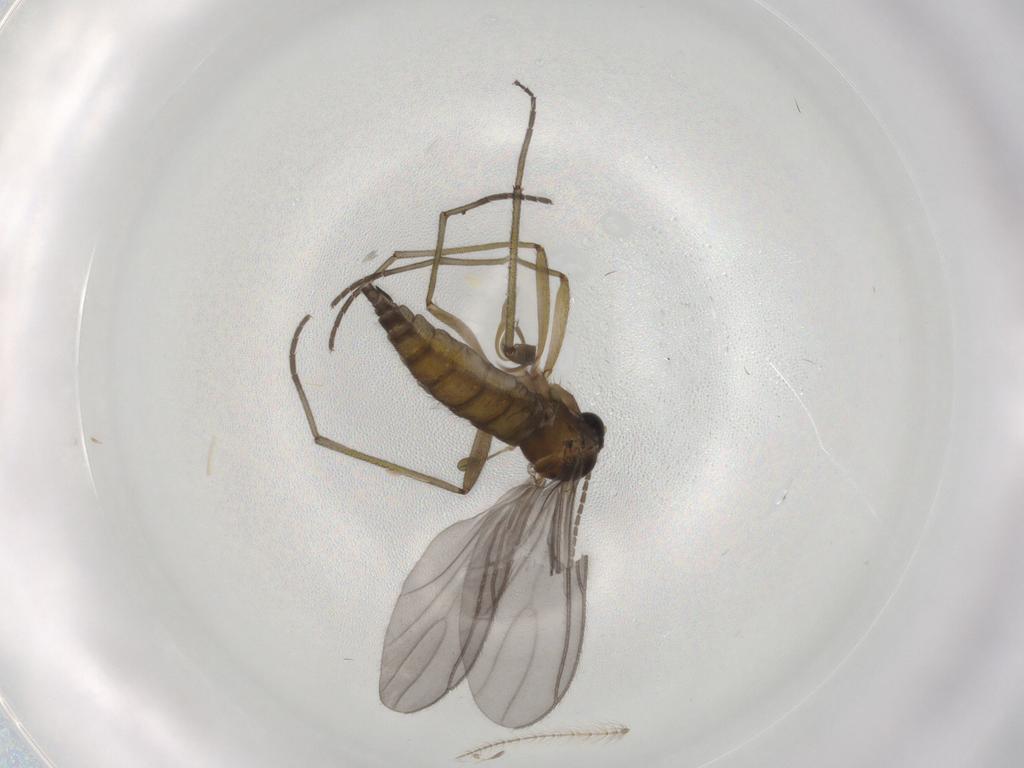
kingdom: Animalia
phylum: Arthropoda
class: Insecta
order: Diptera
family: Sciaridae
